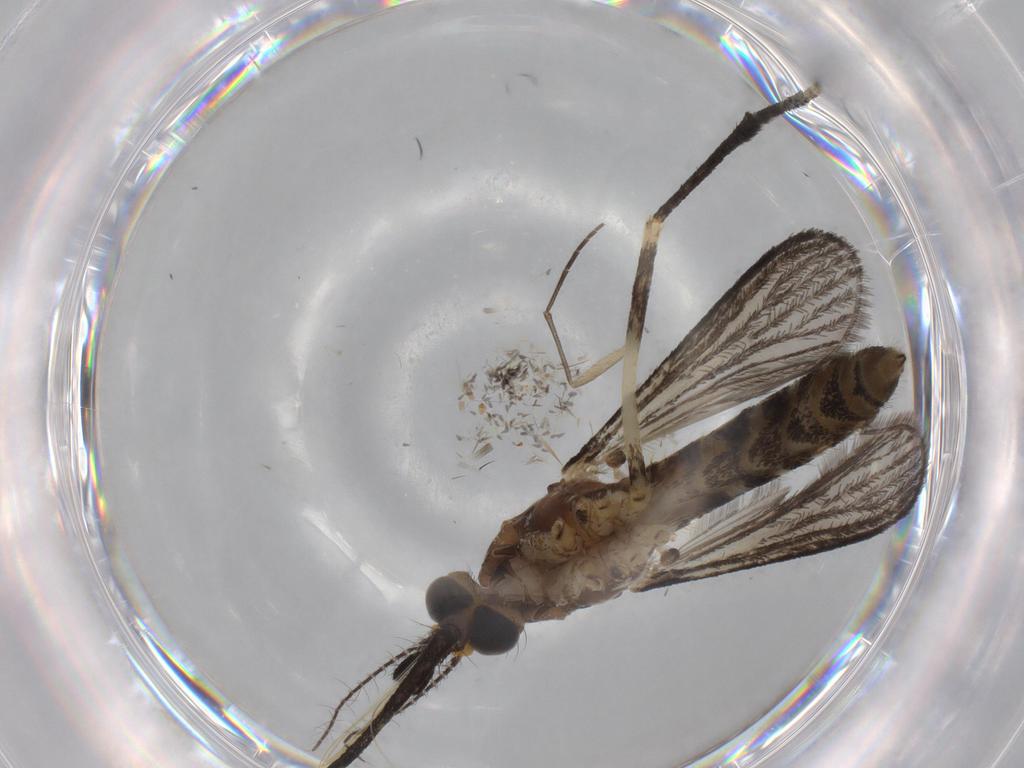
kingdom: Animalia
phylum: Arthropoda
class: Insecta
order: Diptera
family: Cecidomyiidae
